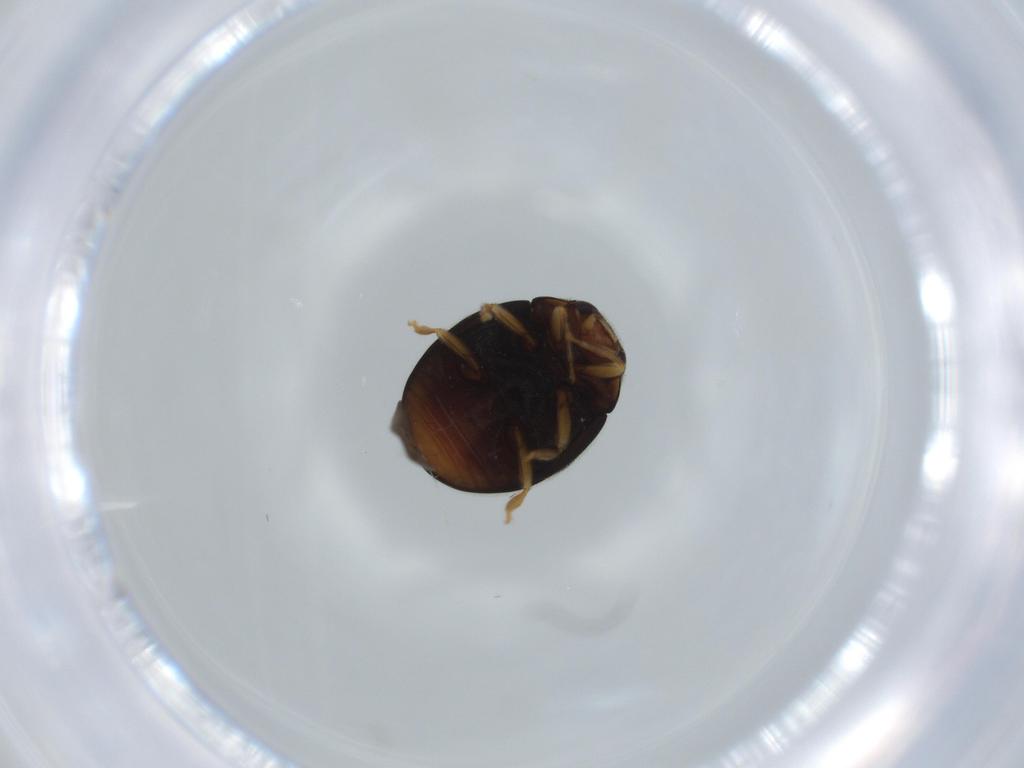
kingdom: Animalia
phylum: Arthropoda
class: Insecta
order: Coleoptera
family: Coccinellidae
